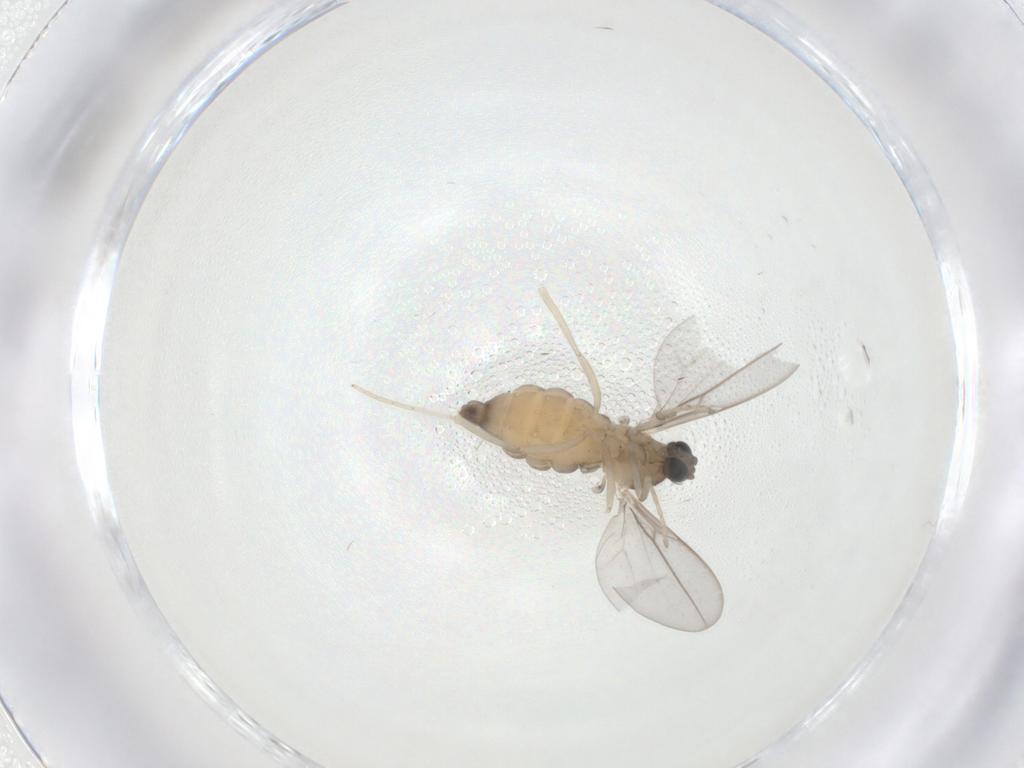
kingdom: Animalia
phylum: Arthropoda
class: Insecta
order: Diptera
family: Cecidomyiidae
